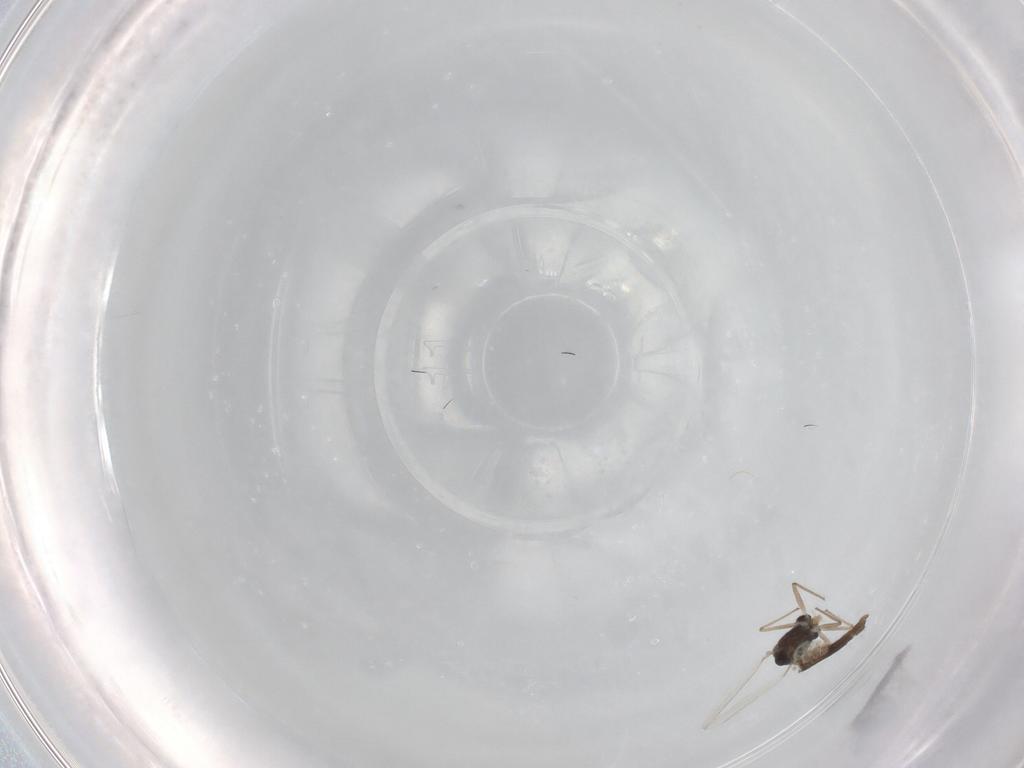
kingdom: Animalia
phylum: Arthropoda
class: Insecta
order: Diptera
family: Chironomidae
